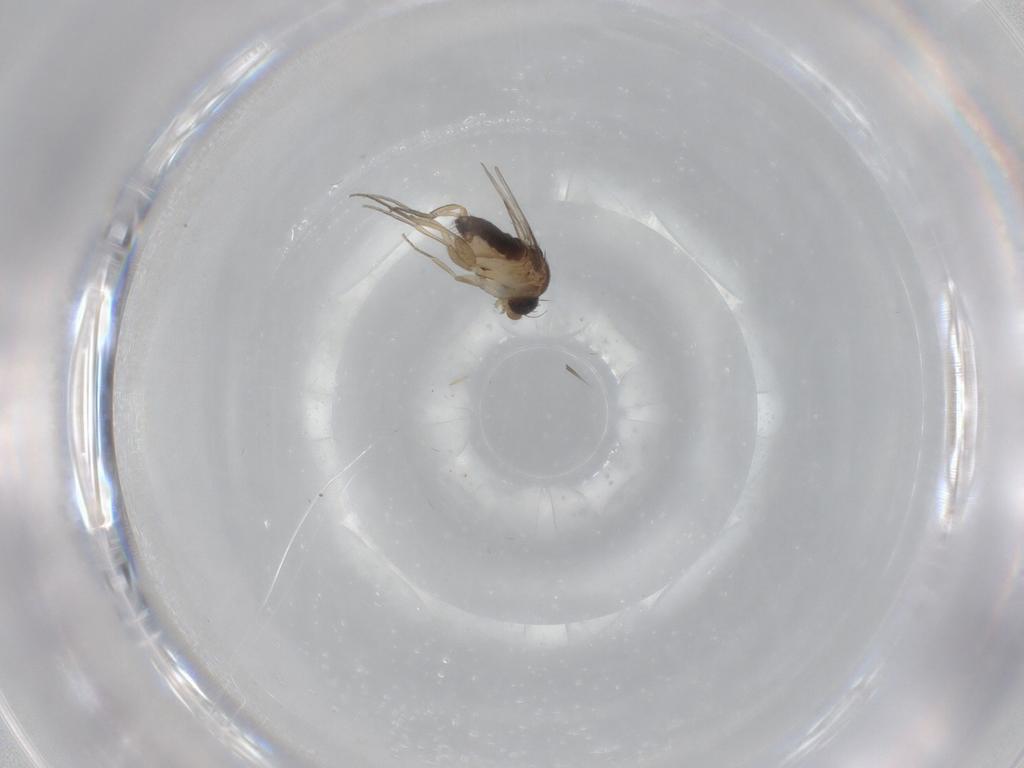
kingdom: Animalia
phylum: Arthropoda
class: Insecta
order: Diptera
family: Phoridae
